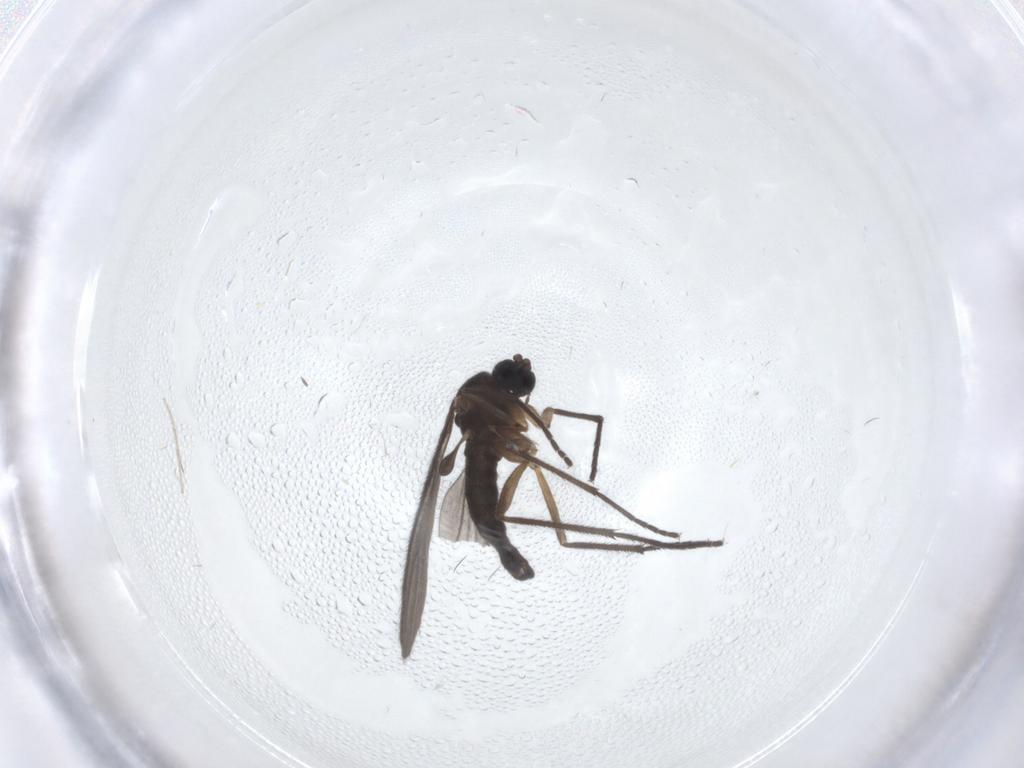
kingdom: Animalia
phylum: Arthropoda
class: Insecta
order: Diptera
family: Sciaridae
